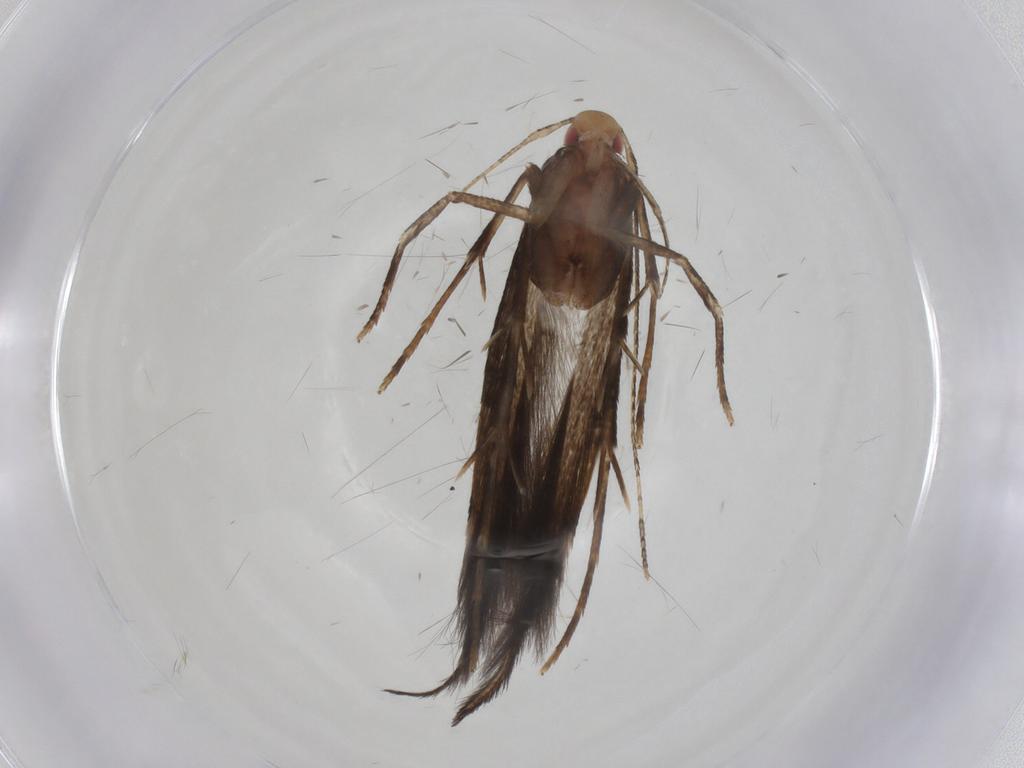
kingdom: Animalia
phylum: Arthropoda
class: Insecta
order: Lepidoptera
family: Cosmopterigidae
